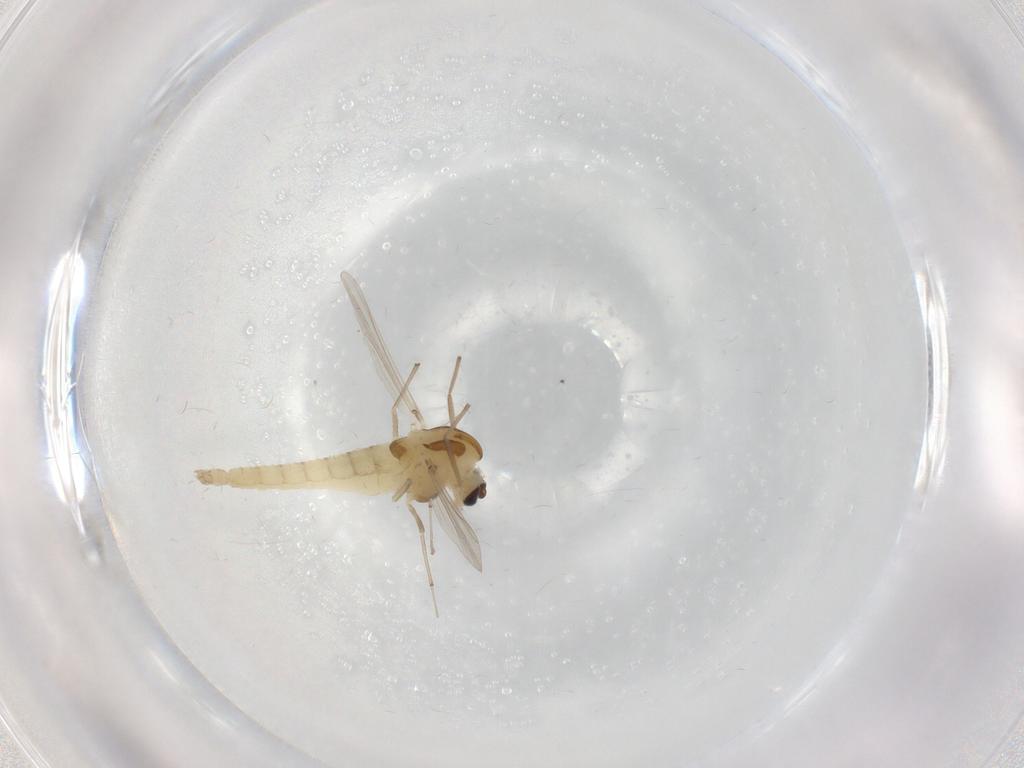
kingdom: Animalia
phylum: Arthropoda
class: Insecta
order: Diptera
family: Chironomidae
